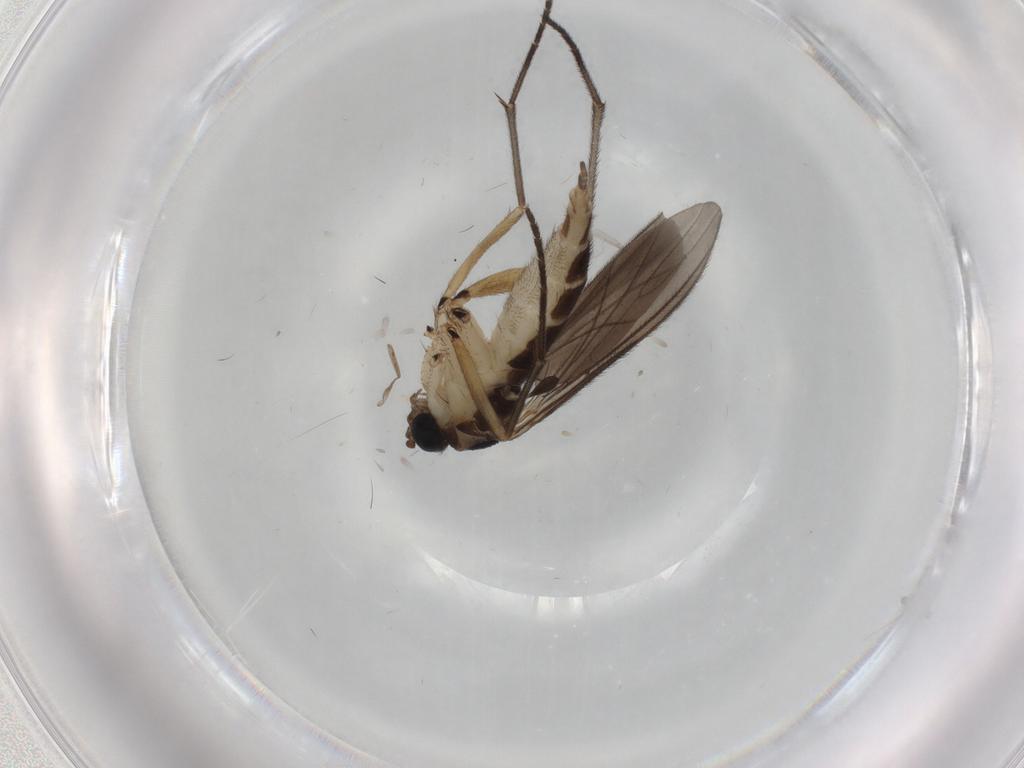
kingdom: Animalia
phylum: Arthropoda
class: Insecta
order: Diptera
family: Sciaridae
